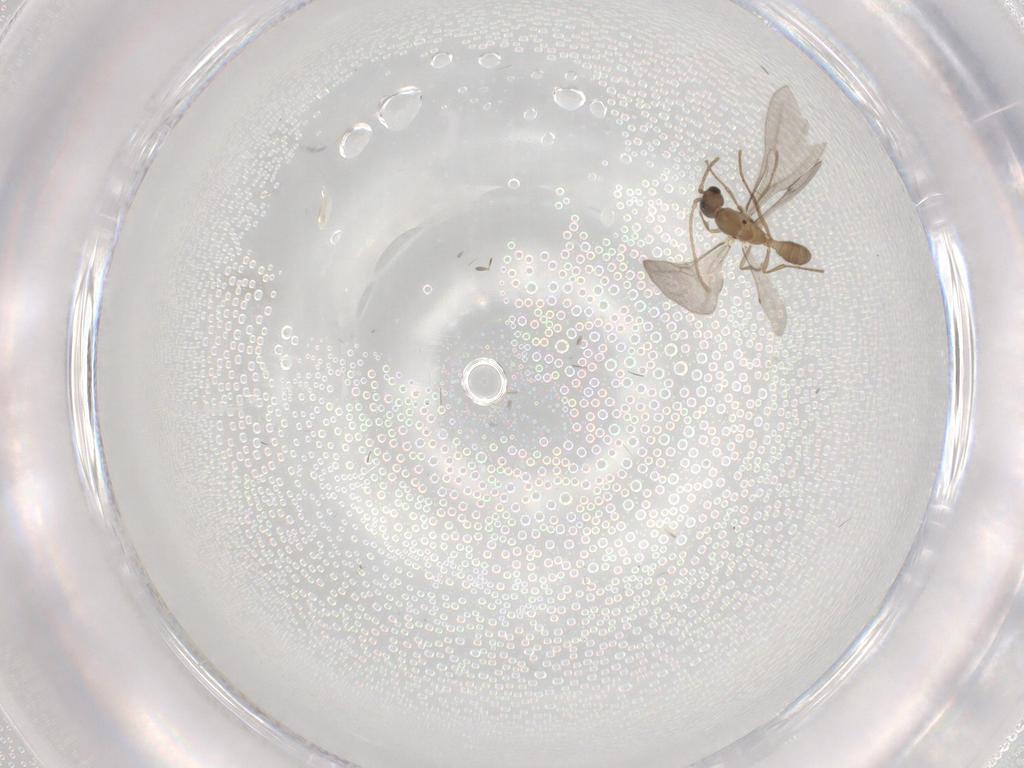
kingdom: Animalia
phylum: Arthropoda
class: Insecta
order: Hymenoptera
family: Formicidae
